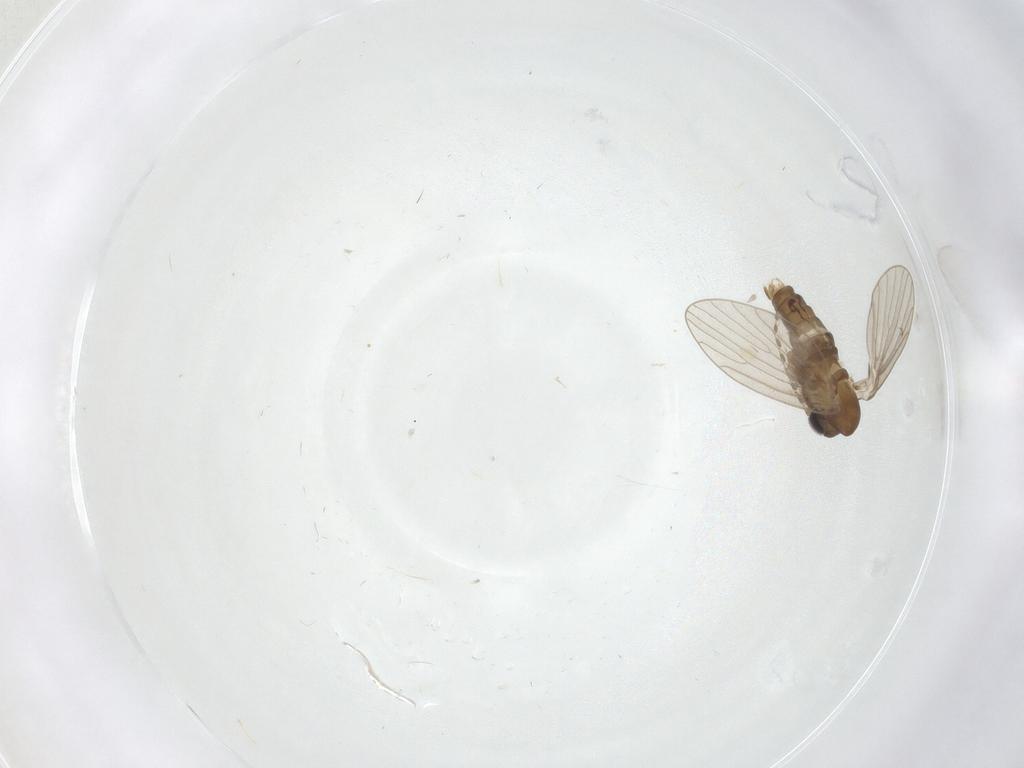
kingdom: Animalia
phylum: Arthropoda
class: Insecta
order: Diptera
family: Psychodidae
